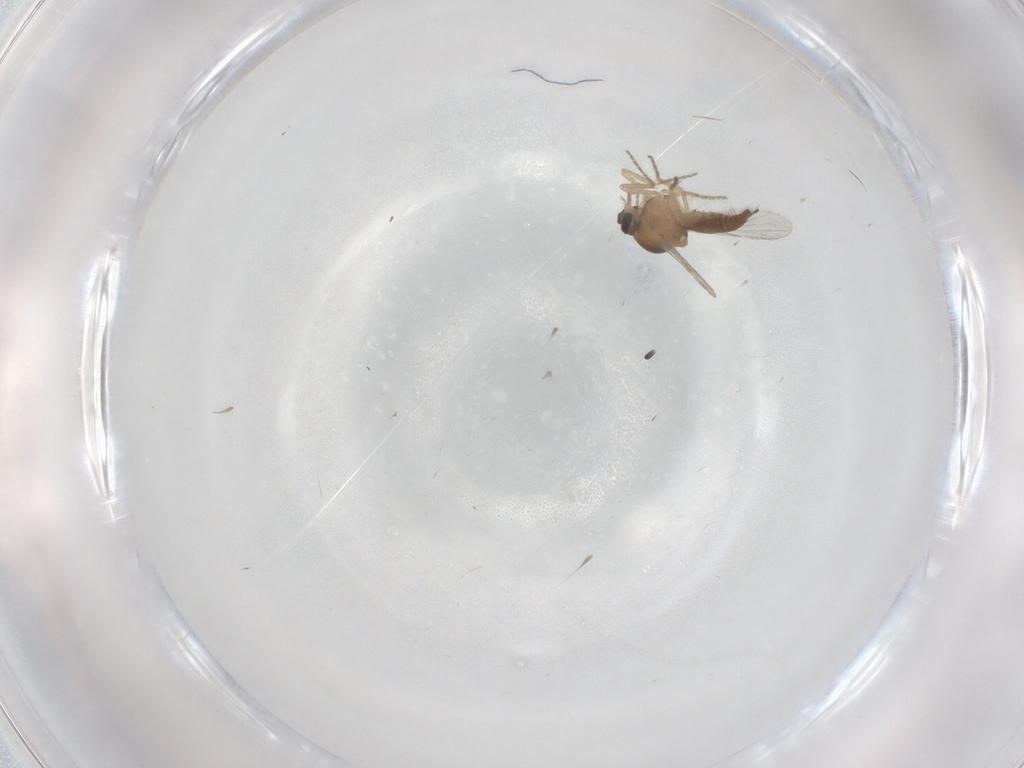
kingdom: Animalia
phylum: Arthropoda
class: Insecta
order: Diptera
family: Ceratopogonidae
